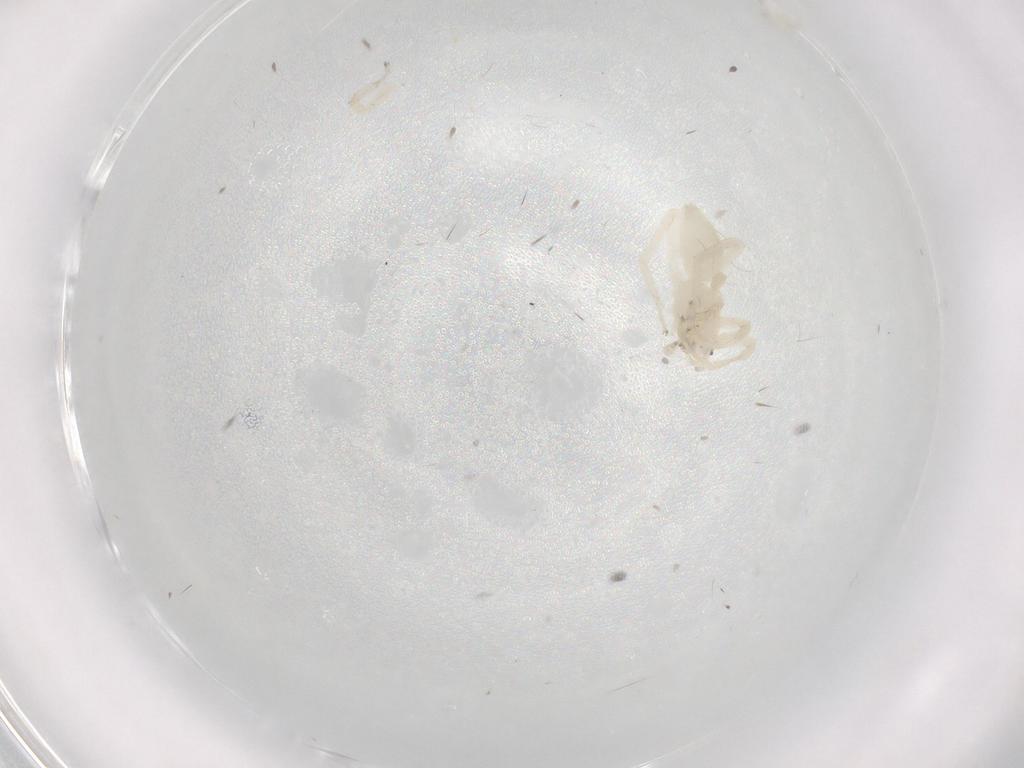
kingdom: Animalia
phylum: Arthropoda
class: Arachnida
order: Araneae
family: Anyphaenidae
